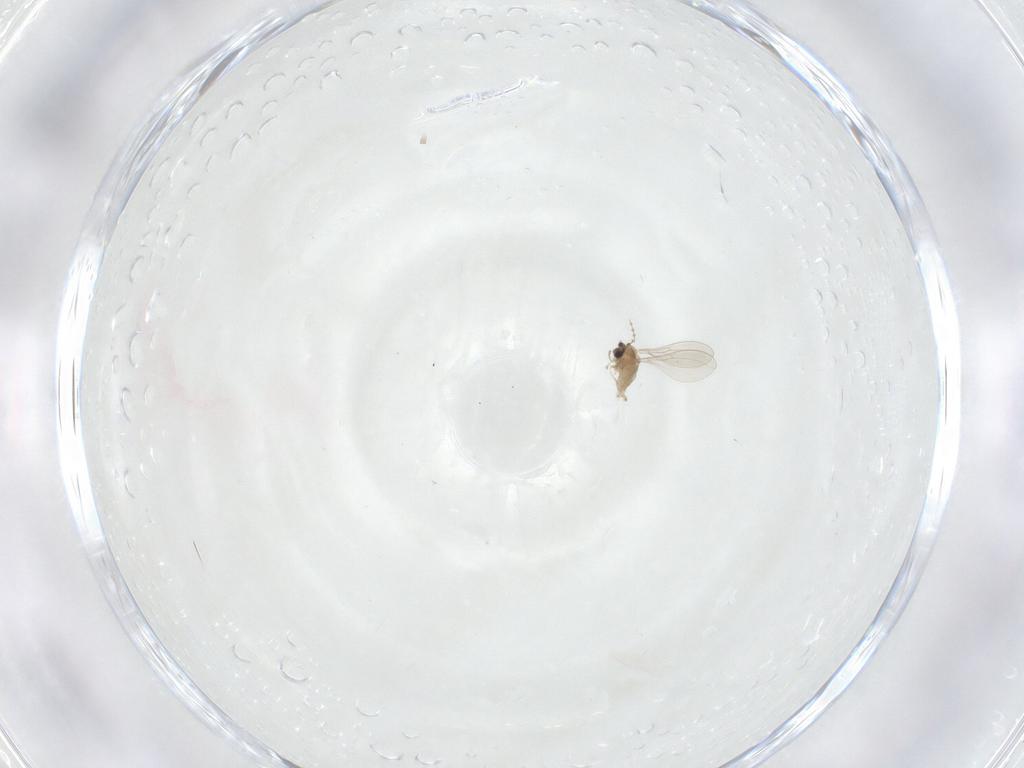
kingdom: Animalia
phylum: Arthropoda
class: Insecta
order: Diptera
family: Cecidomyiidae
